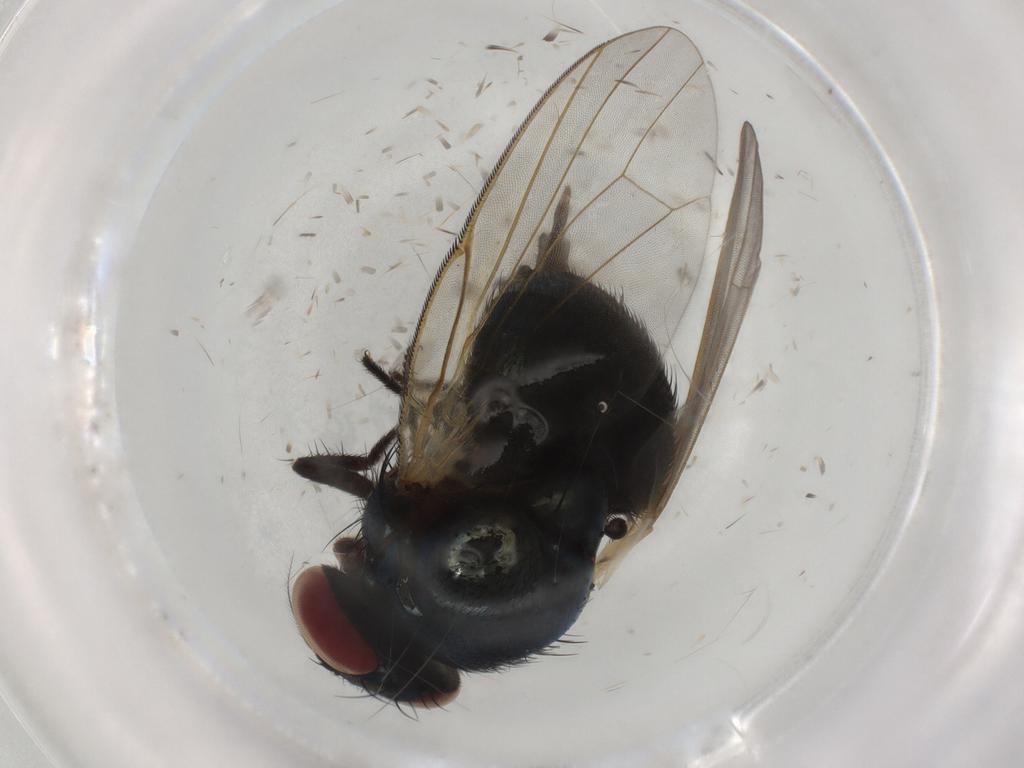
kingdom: Animalia
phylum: Arthropoda
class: Insecta
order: Diptera
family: Lonchaeidae
